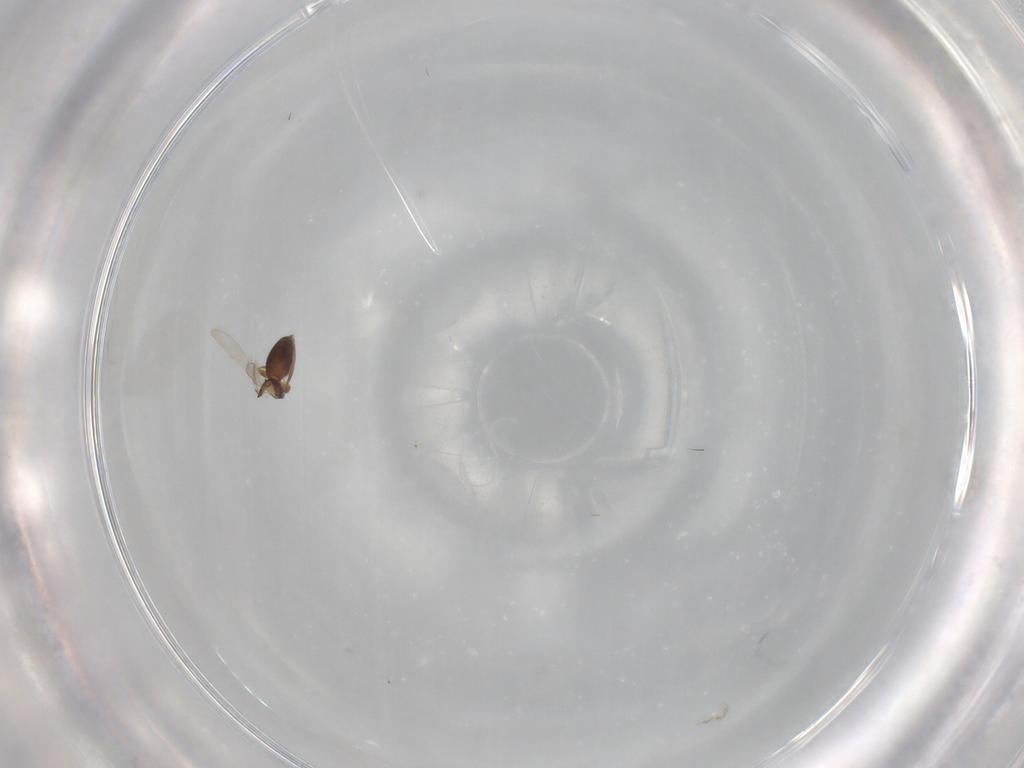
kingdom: Animalia
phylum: Arthropoda
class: Insecta
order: Hymenoptera
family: Ceraphronidae
